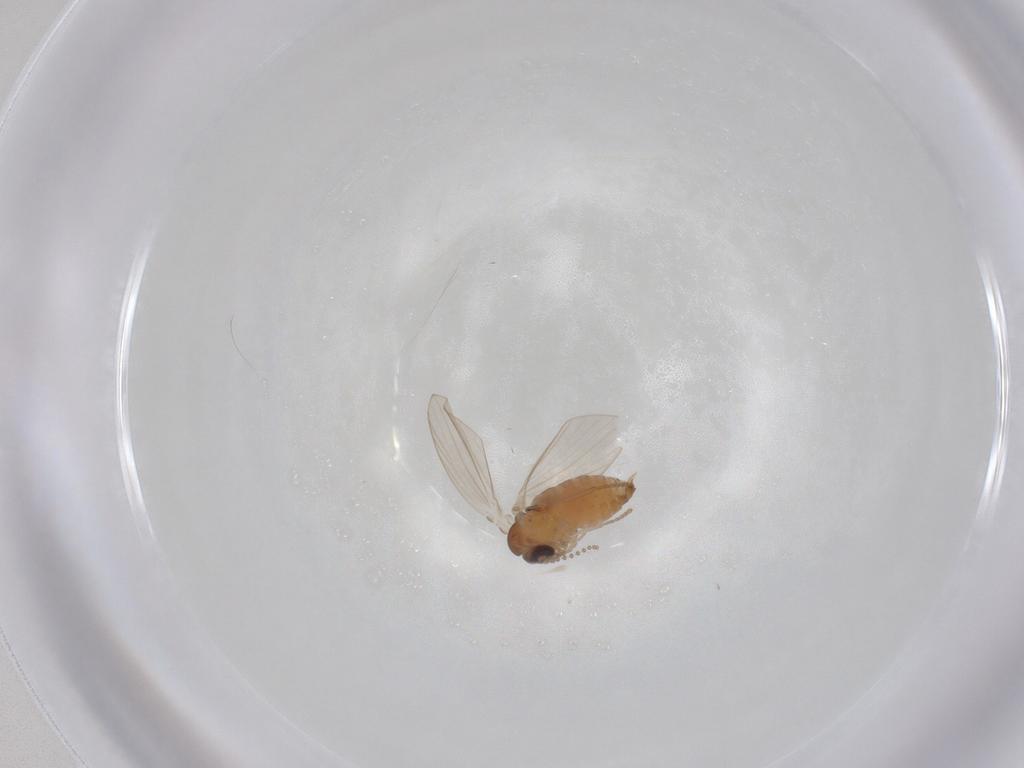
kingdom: Animalia
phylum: Arthropoda
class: Insecta
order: Diptera
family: Psychodidae
